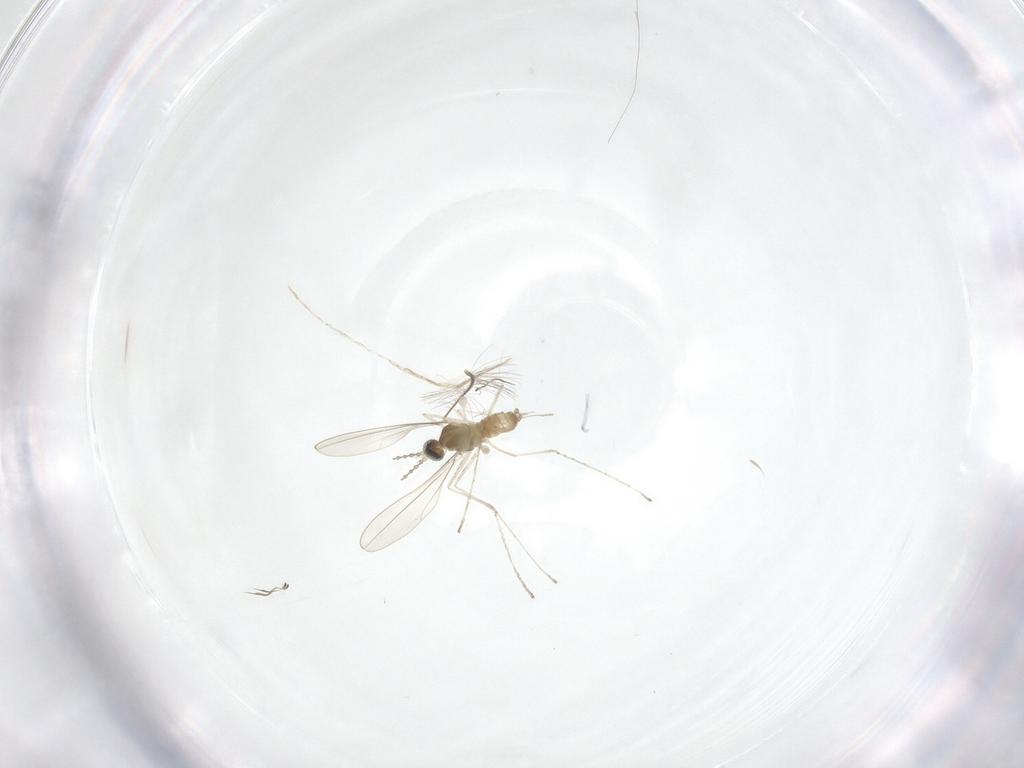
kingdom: Animalia
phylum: Arthropoda
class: Insecta
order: Diptera
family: Cecidomyiidae
